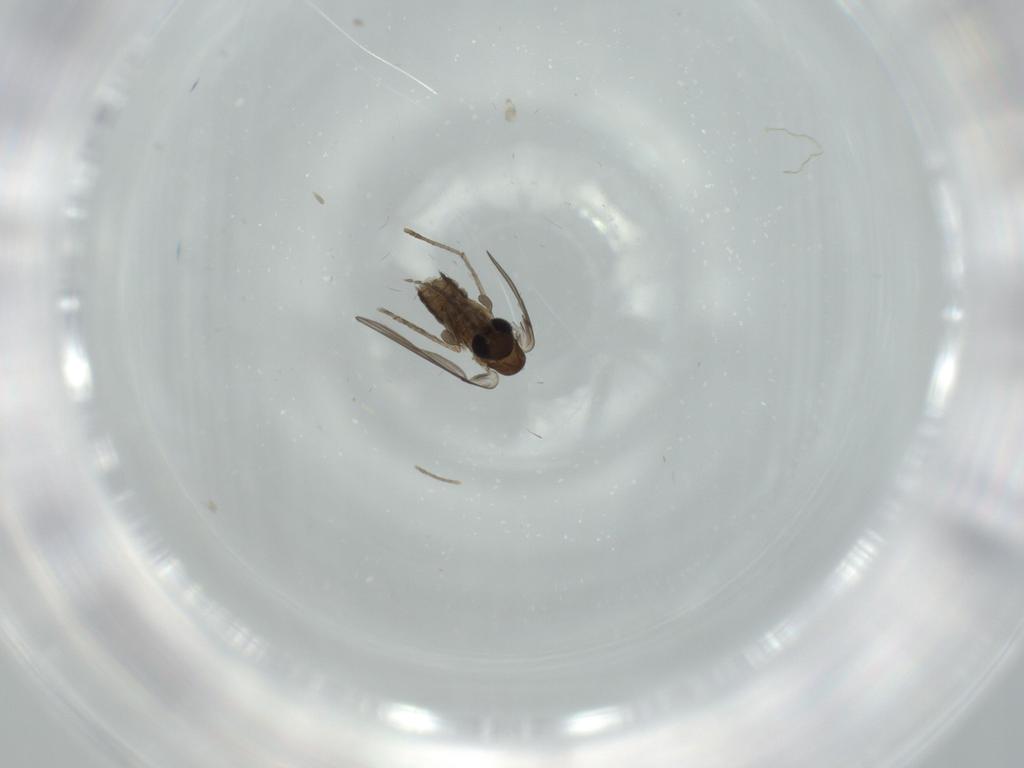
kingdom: Animalia
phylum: Arthropoda
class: Insecta
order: Diptera
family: Psychodidae
